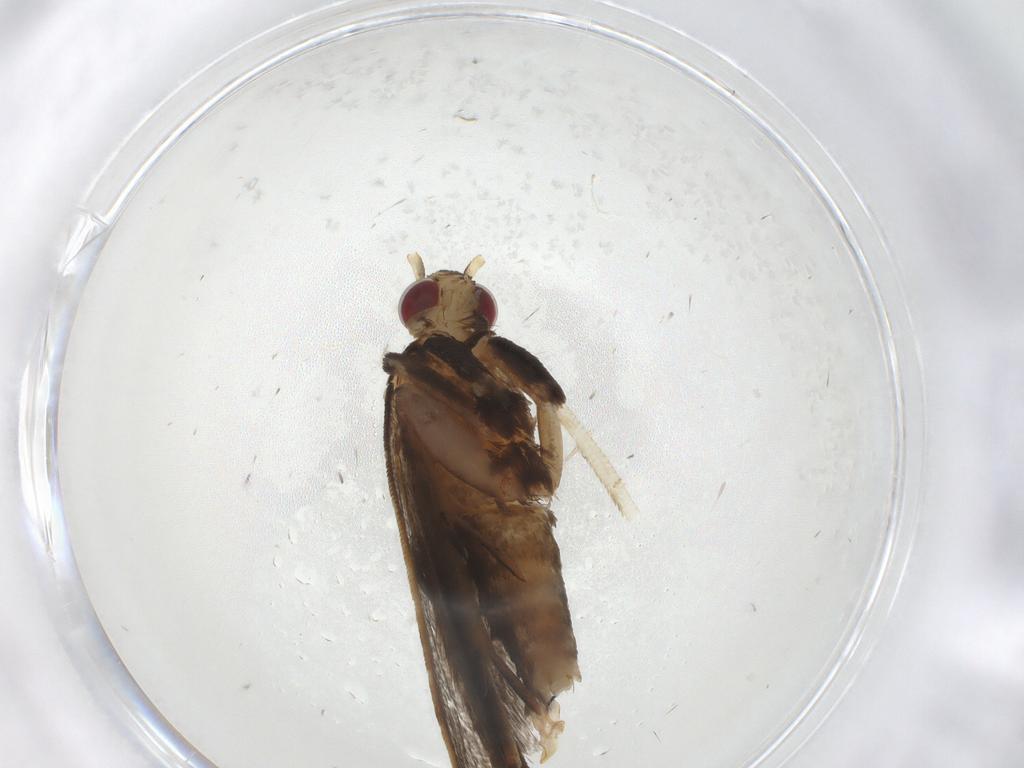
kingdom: Animalia
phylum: Arthropoda
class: Insecta
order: Lepidoptera
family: Gelechiidae
